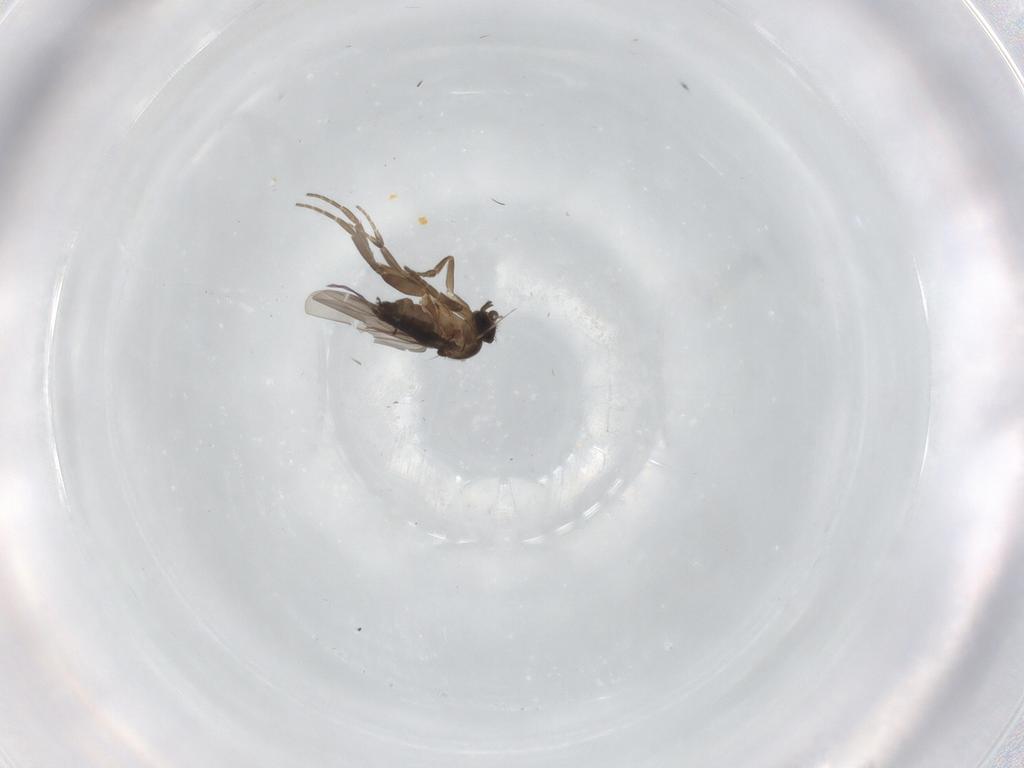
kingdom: Animalia
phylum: Arthropoda
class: Insecta
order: Diptera
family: Phoridae
